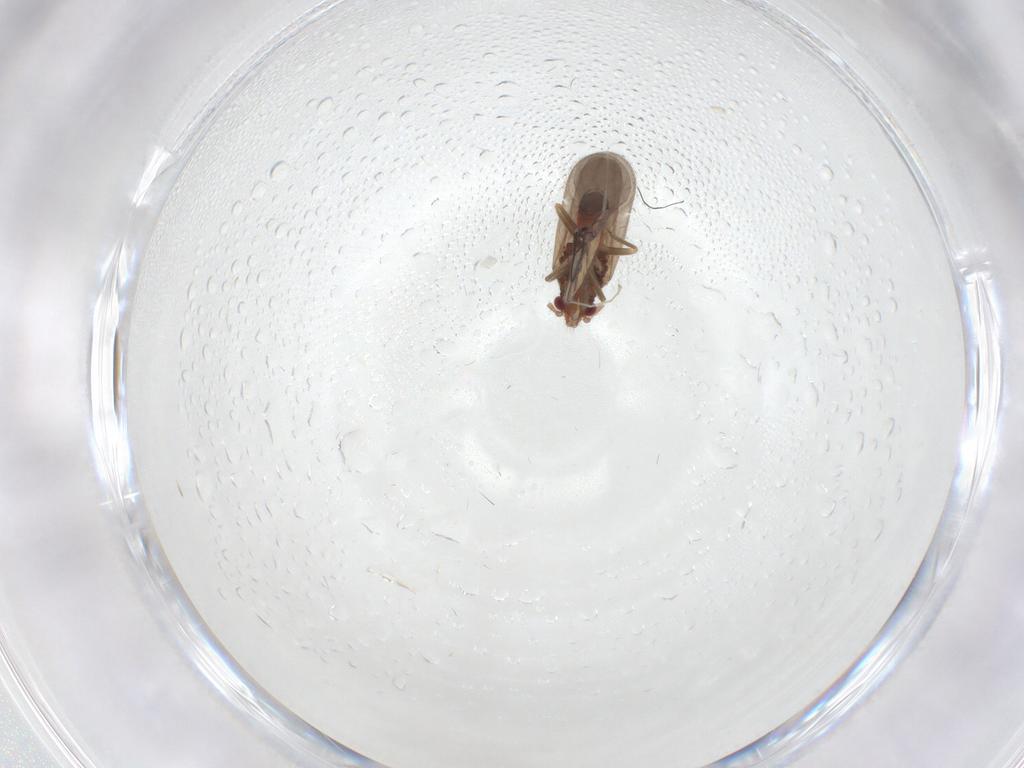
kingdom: Animalia
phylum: Arthropoda
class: Insecta
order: Hemiptera
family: Ceratocombidae
